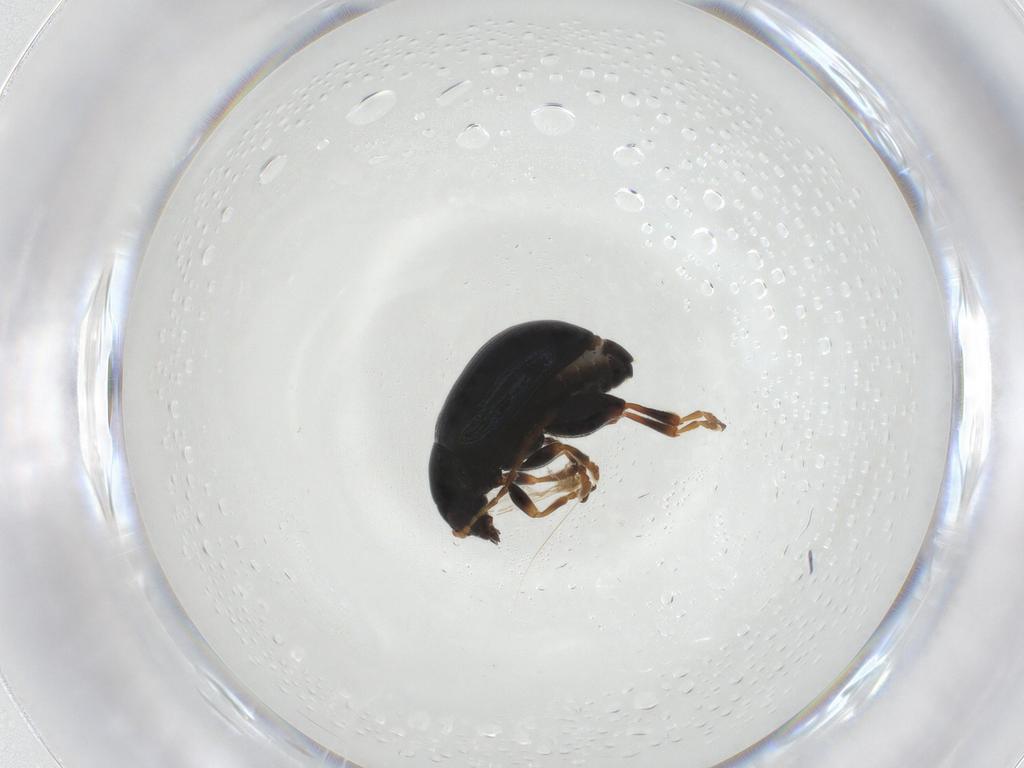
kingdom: Animalia
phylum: Arthropoda
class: Insecta
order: Coleoptera
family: Chrysomelidae
